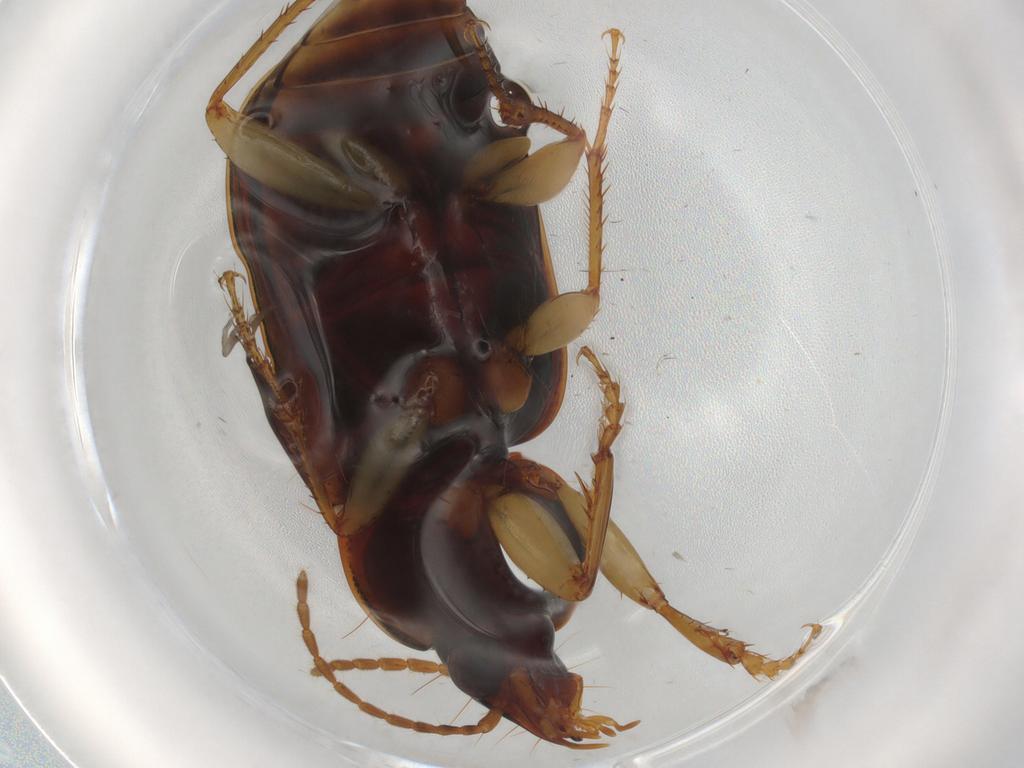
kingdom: Animalia
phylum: Arthropoda
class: Insecta
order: Coleoptera
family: Carabidae
